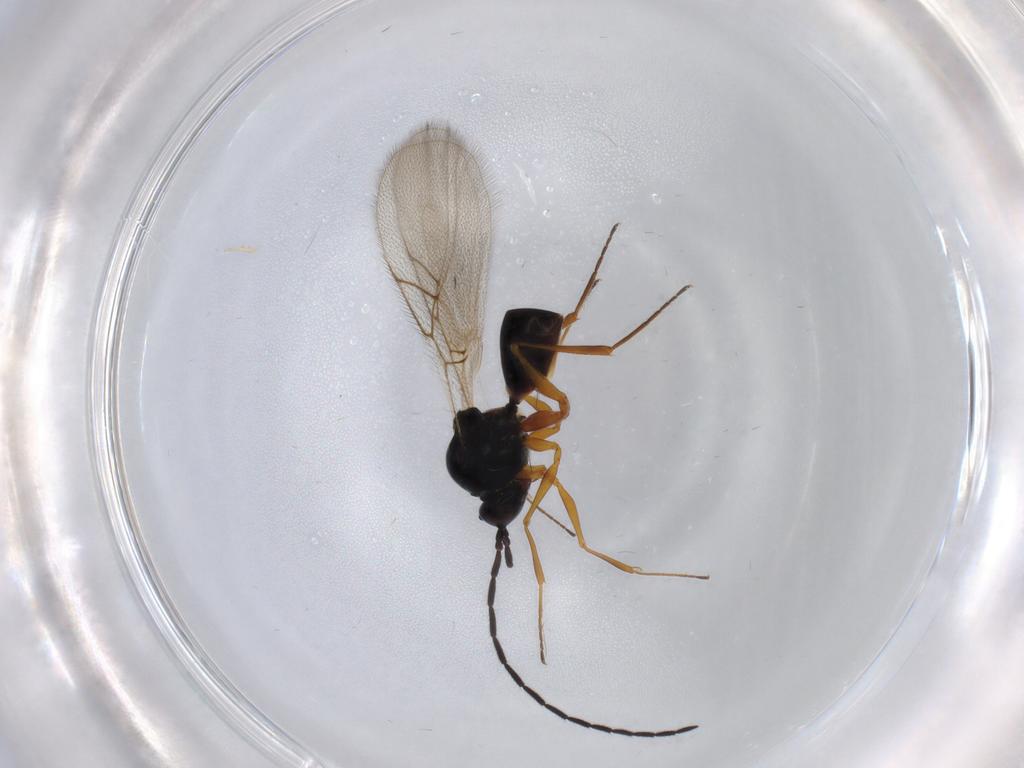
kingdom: Animalia
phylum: Arthropoda
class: Insecta
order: Hymenoptera
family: Figitidae
